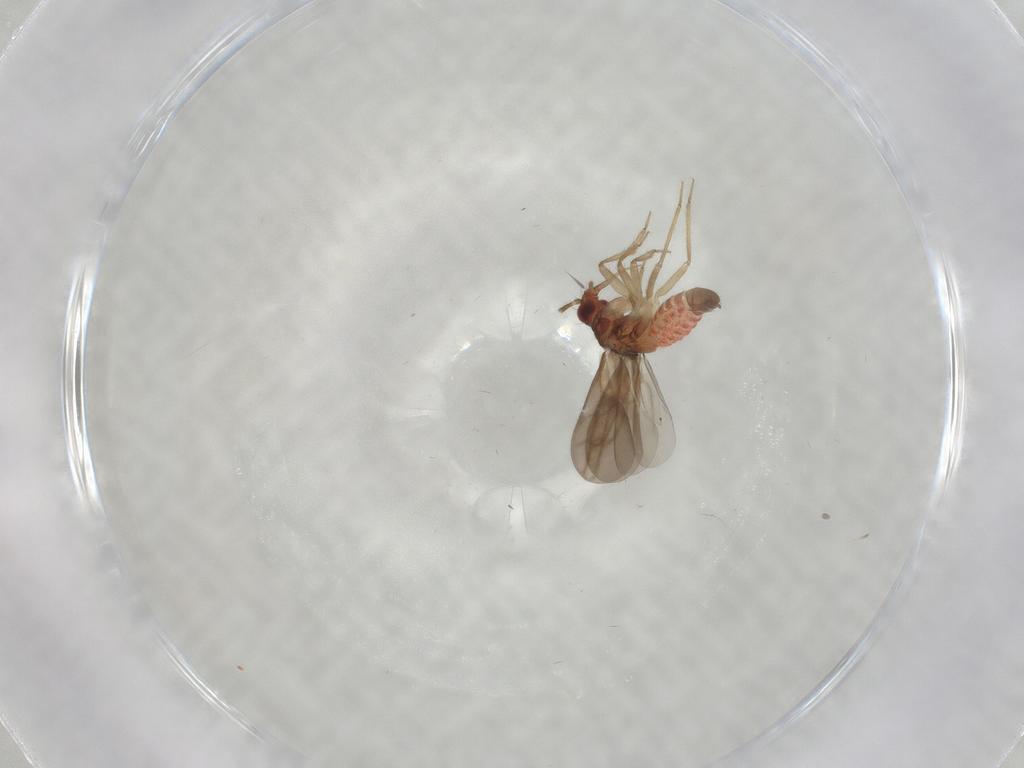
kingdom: Animalia
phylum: Arthropoda
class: Insecta
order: Hemiptera
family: Ceratocombidae
